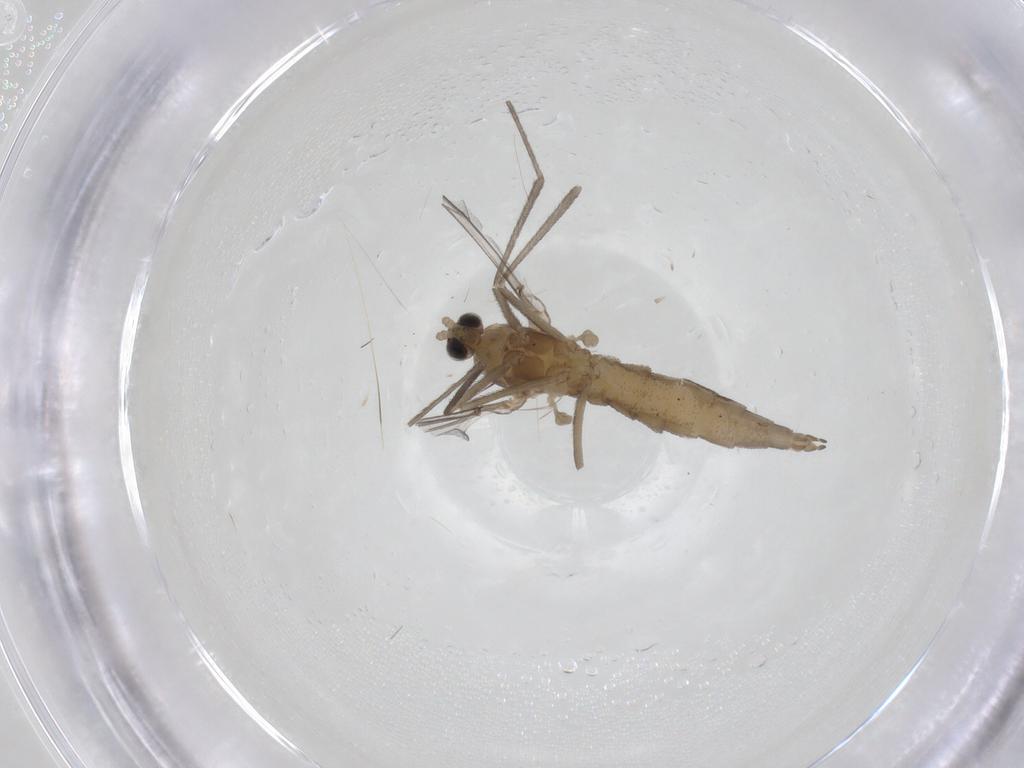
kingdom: Animalia
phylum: Arthropoda
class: Insecta
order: Diptera
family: Cecidomyiidae
